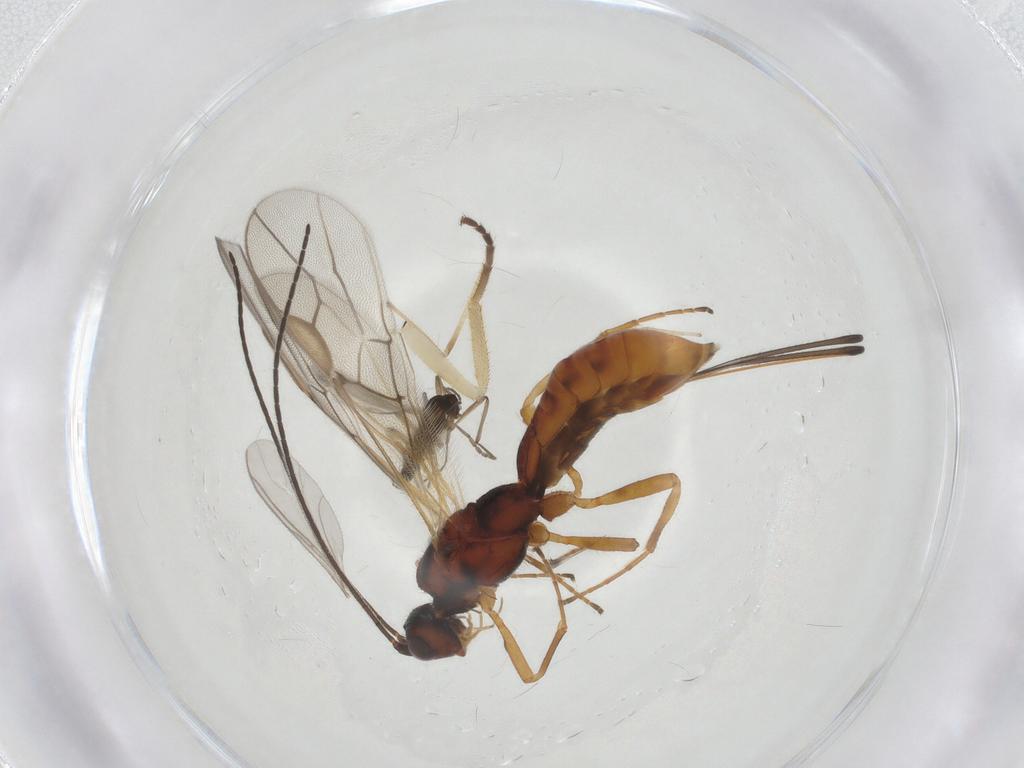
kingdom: Animalia
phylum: Arthropoda
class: Insecta
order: Hymenoptera
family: Braconidae
